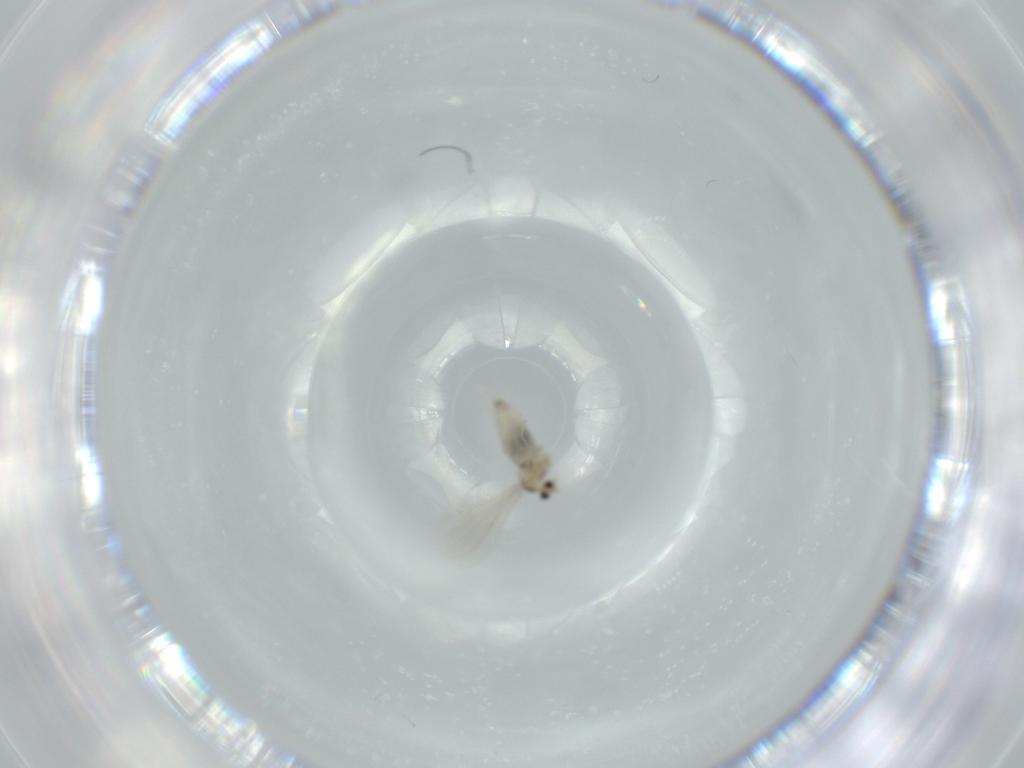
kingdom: Animalia
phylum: Arthropoda
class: Insecta
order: Diptera
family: Cecidomyiidae
